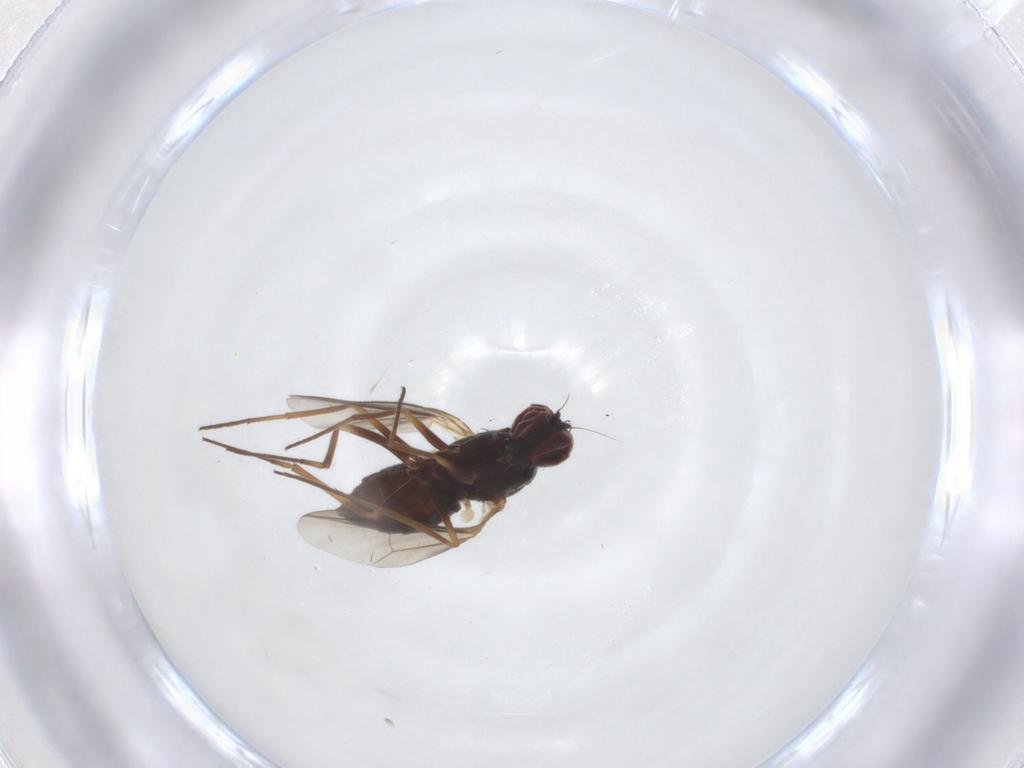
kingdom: Animalia
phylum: Arthropoda
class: Insecta
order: Diptera
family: Dolichopodidae
